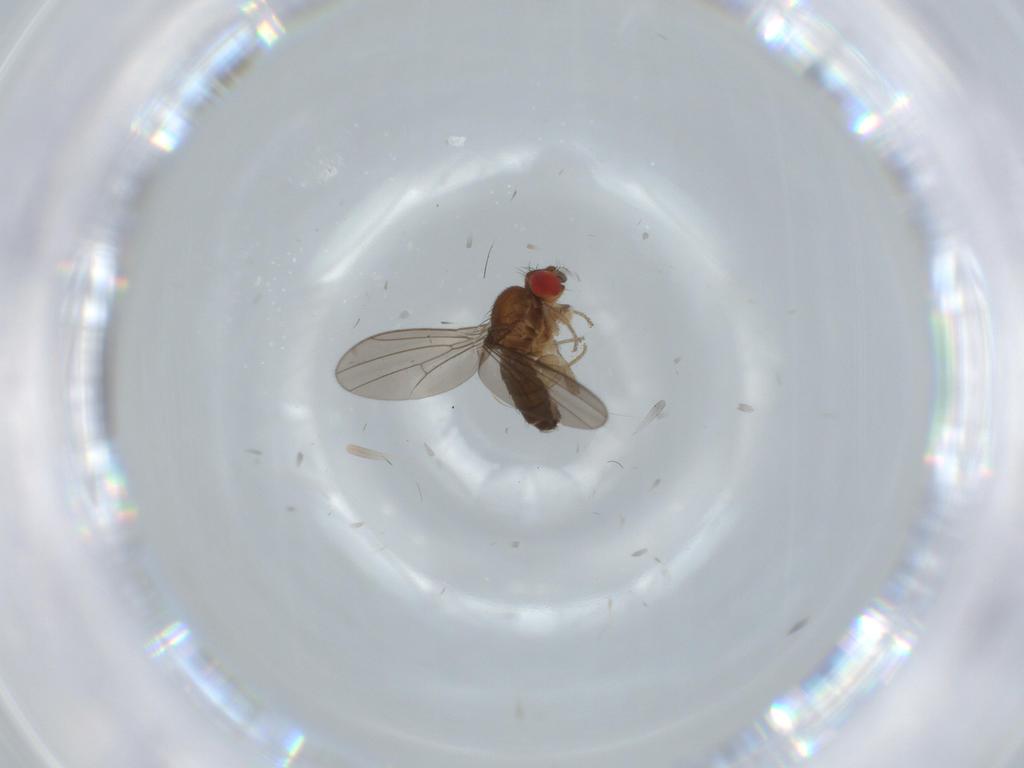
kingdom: Animalia
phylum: Arthropoda
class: Insecta
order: Diptera
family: Ceratopogonidae
